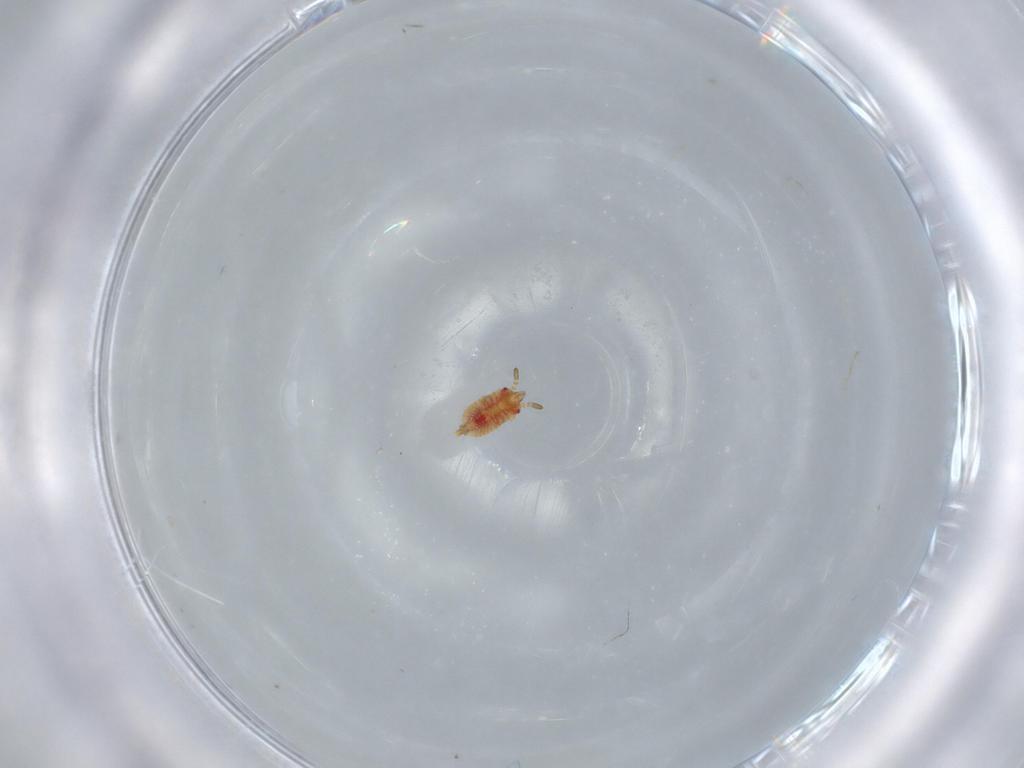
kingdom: Animalia
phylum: Arthropoda
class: Insecta
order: Hemiptera
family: Aradidae
